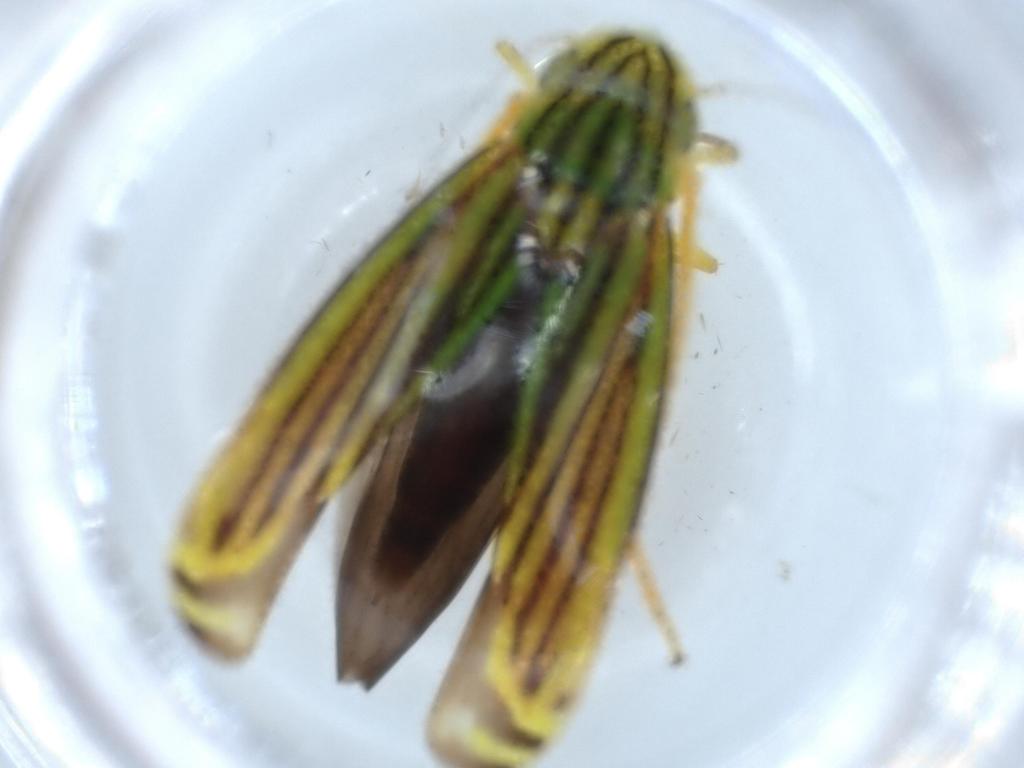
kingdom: Animalia
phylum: Arthropoda
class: Insecta
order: Hemiptera
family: Cicadellidae
